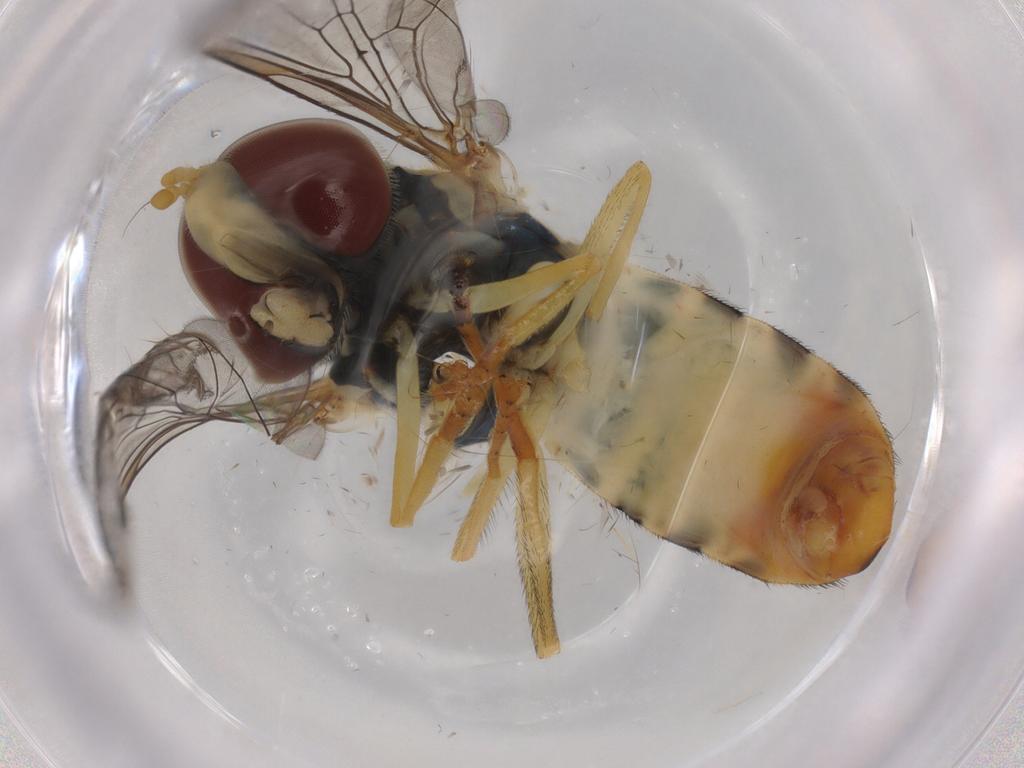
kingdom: Animalia
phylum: Arthropoda
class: Insecta
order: Diptera
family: Syrphidae
